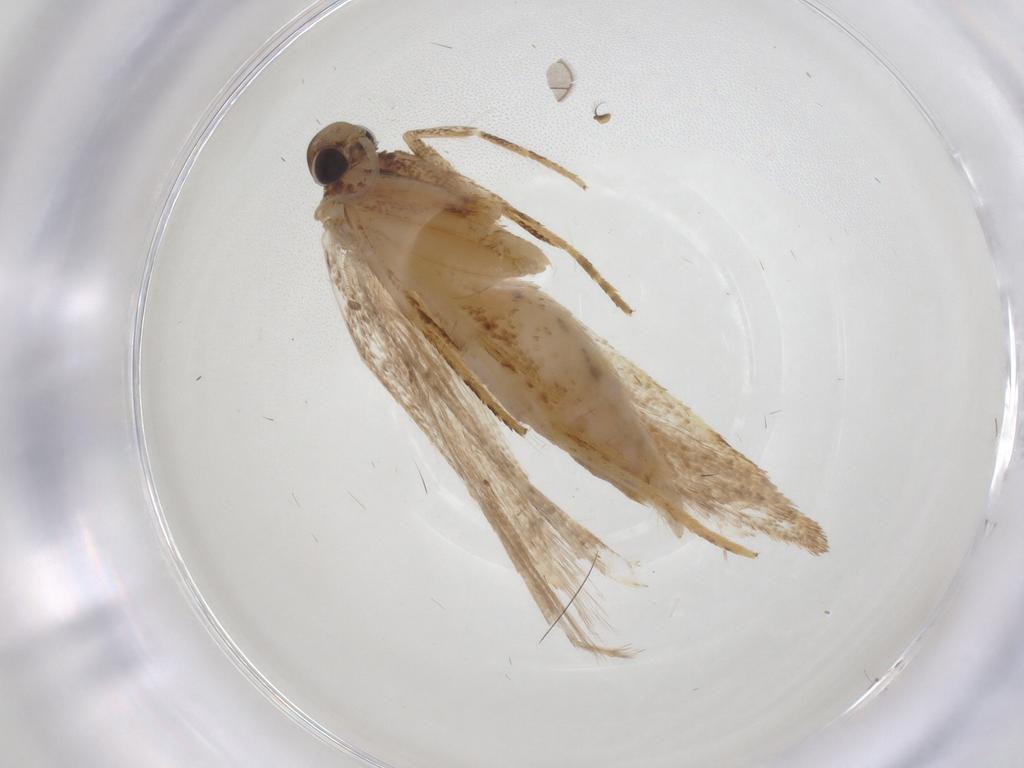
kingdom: Animalia
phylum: Arthropoda
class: Insecta
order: Lepidoptera
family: Gelechiidae
